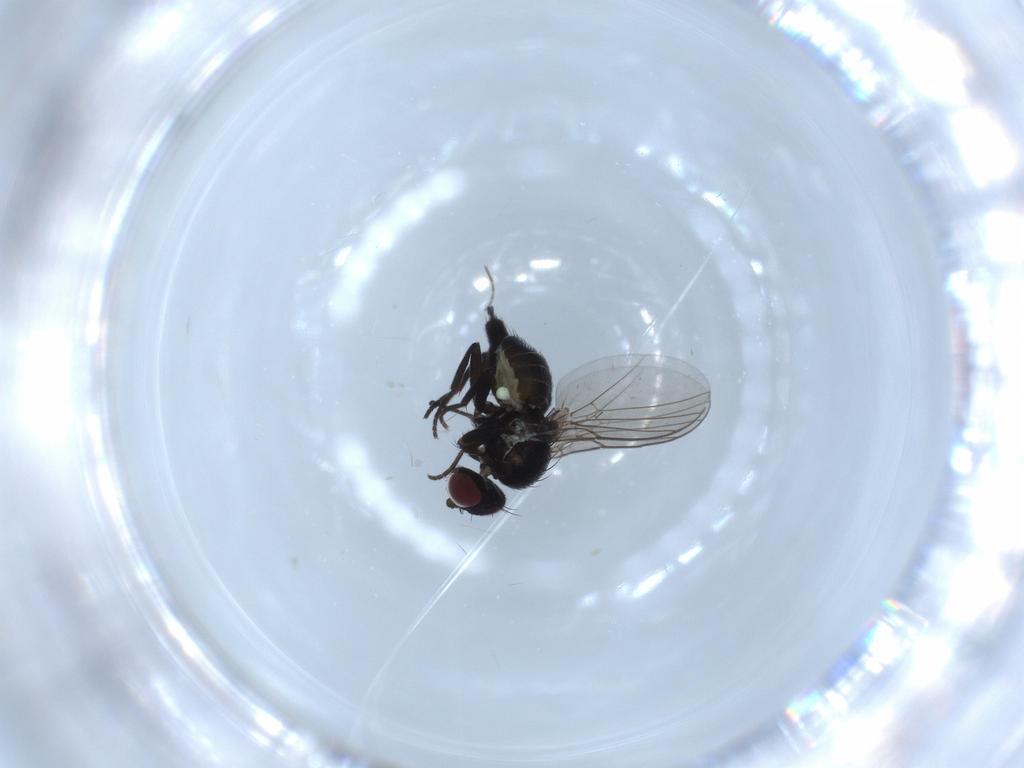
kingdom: Animalia
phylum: Arthropoda
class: Insecta
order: Diptera
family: Agromyzidae
